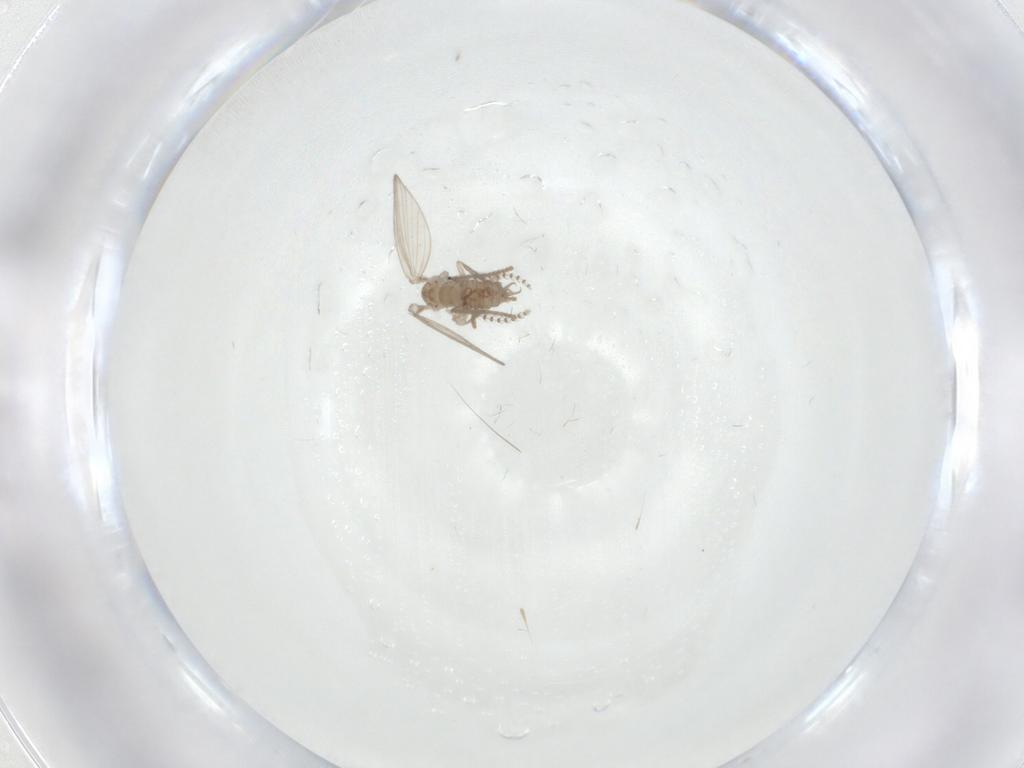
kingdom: Animalia
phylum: Arthropoda
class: Insecta
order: Diptera
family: Psychodidae
